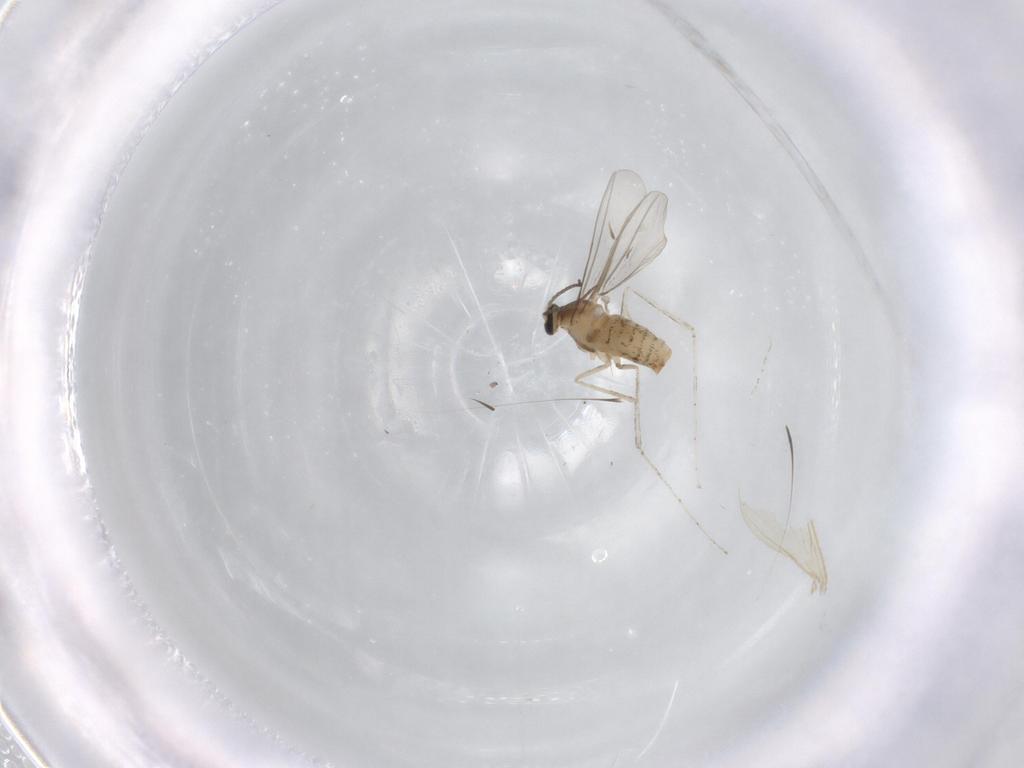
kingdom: Animalia
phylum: Arthropoda
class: Insecta
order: Diptera
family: Cecidomyiidae
